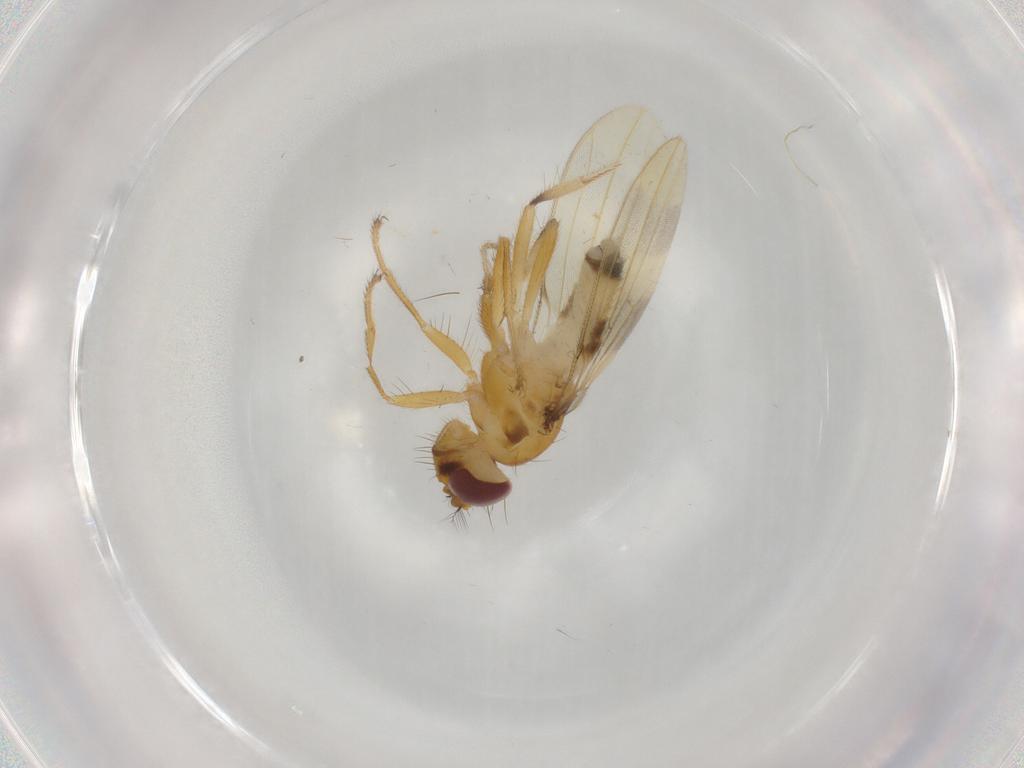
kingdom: Animalia
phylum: Arthropoda
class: Insecta
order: Diptera
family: Periscelididae
